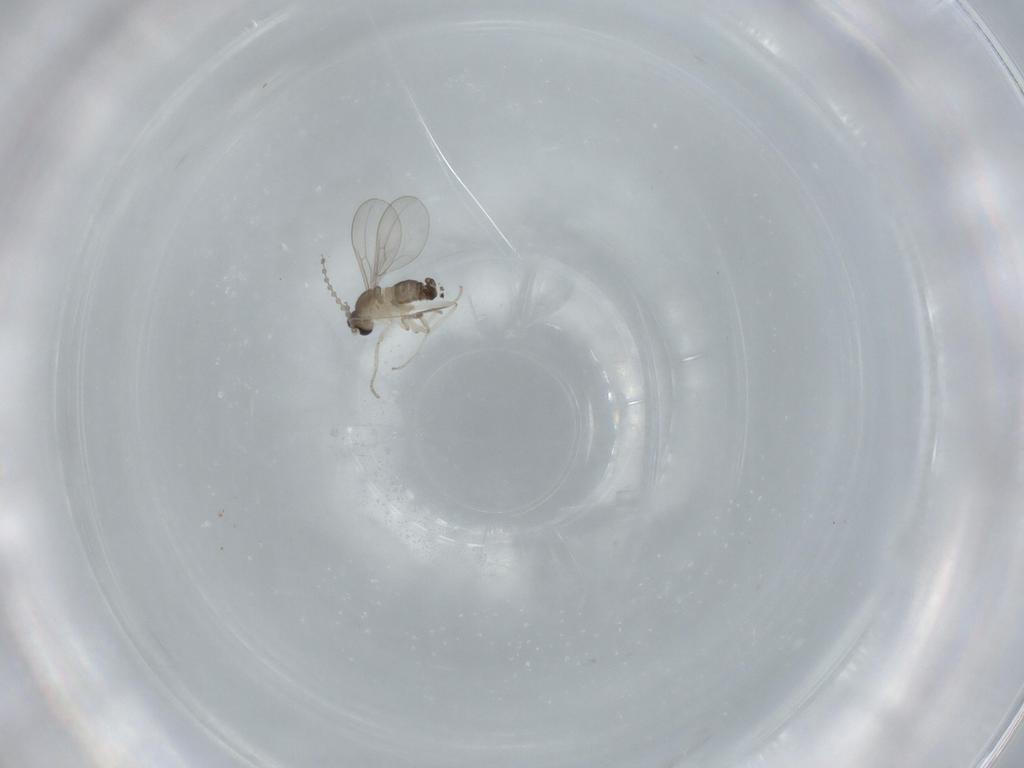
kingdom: Animalia
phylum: Arthropoda
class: Insecta
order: Diptera
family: Cecidomyiidae
